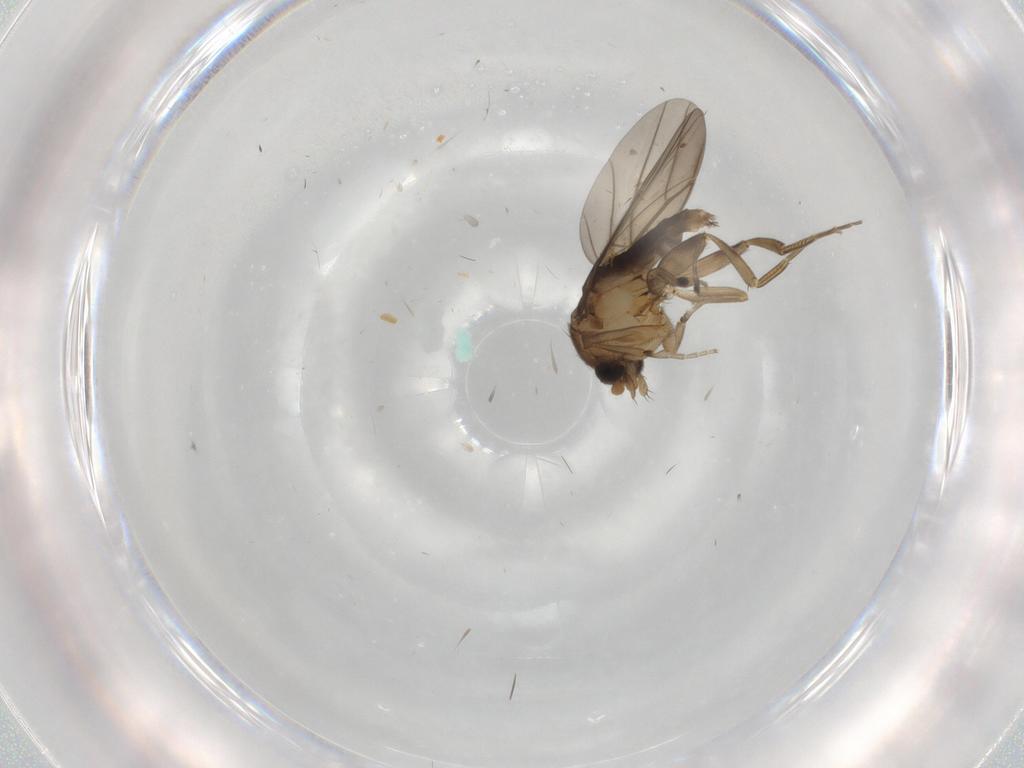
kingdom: Animalia
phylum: Arthropoda
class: Insecta
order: Diptera
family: Phoridae
